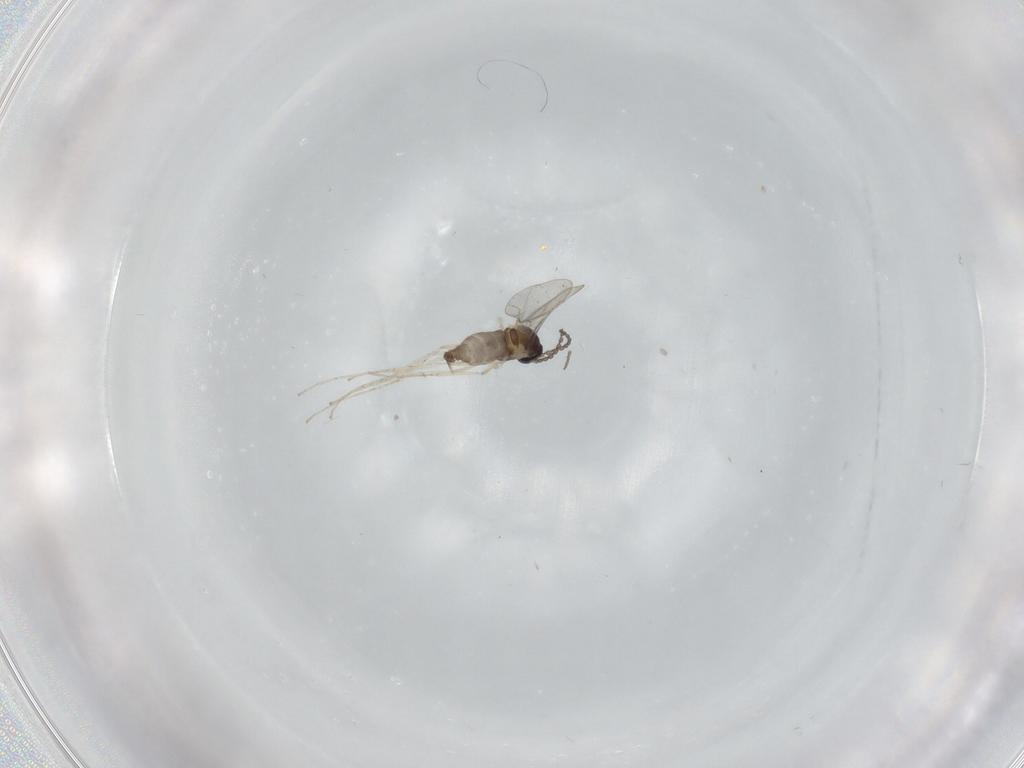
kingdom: Animalia
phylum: Arthropoda
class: Insecta
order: Diptera
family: Cecidomyiidae
